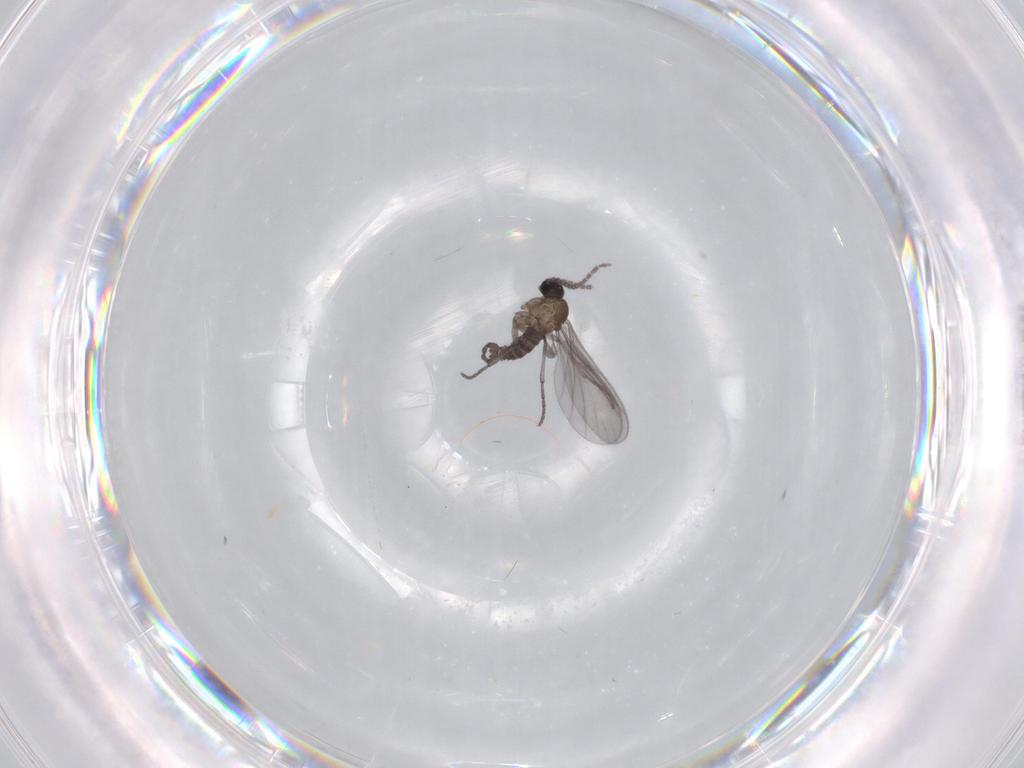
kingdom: Animalia
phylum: Arthropoda
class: Insecta
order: Diptera
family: Sciaridae
